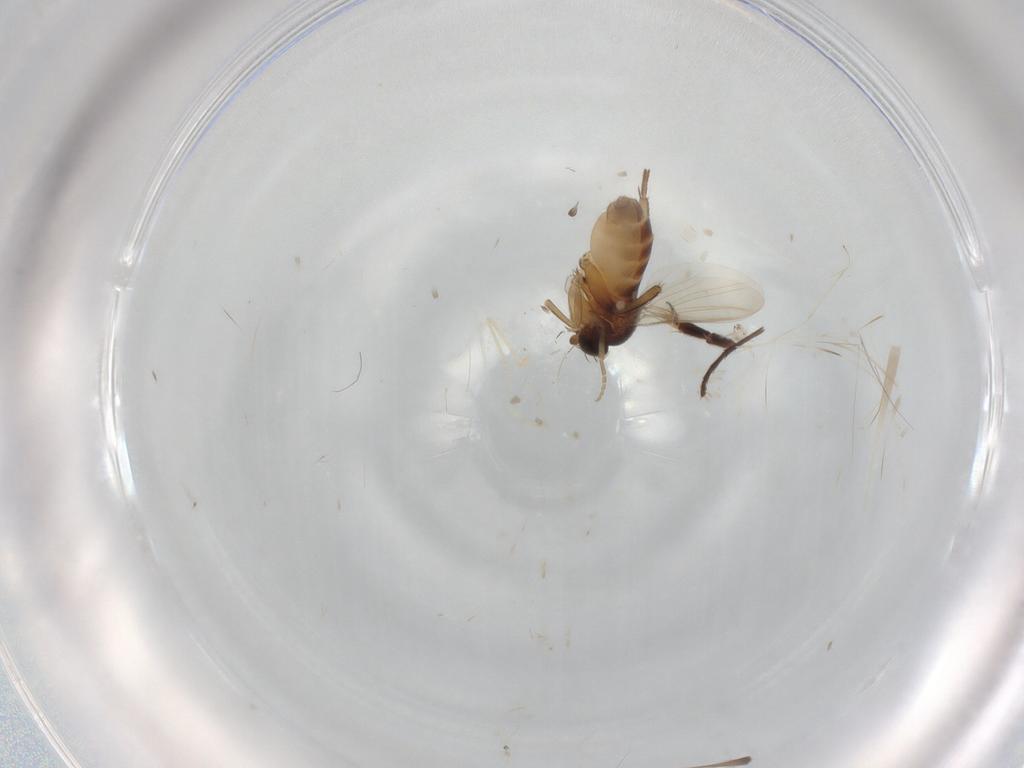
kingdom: Animalia
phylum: Arthropoda
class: Insecta
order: Diptera
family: Phoridae
